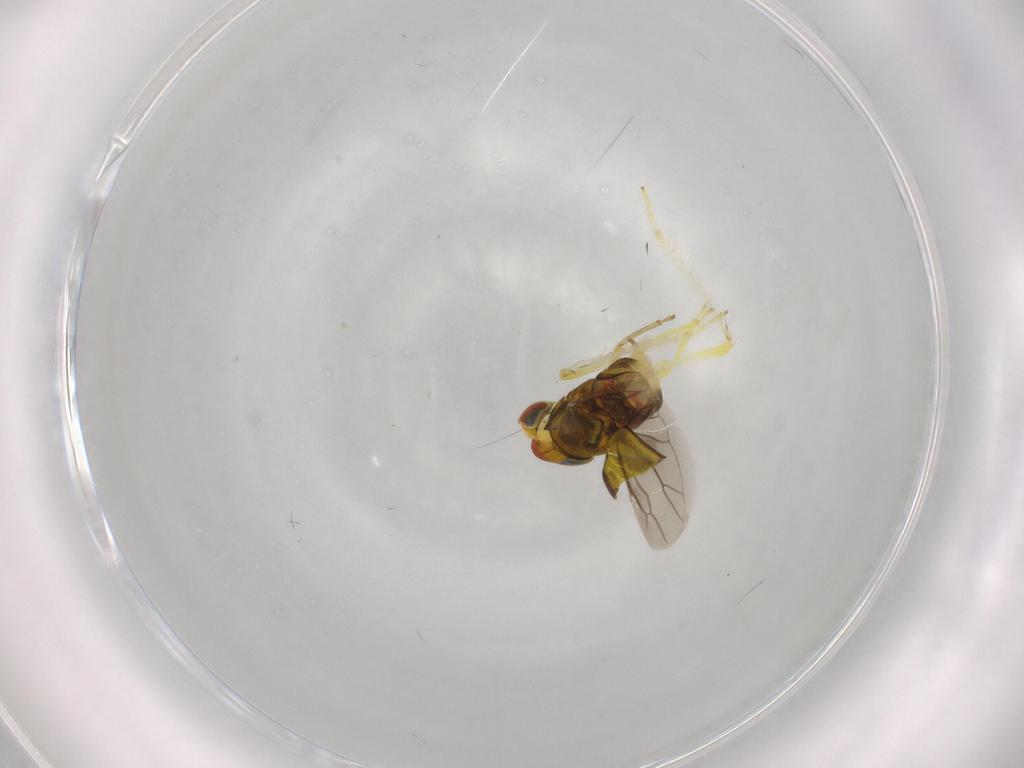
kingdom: Animalia
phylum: Arthropoda
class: Insecta
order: Hemiptera
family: Cicadellidae
